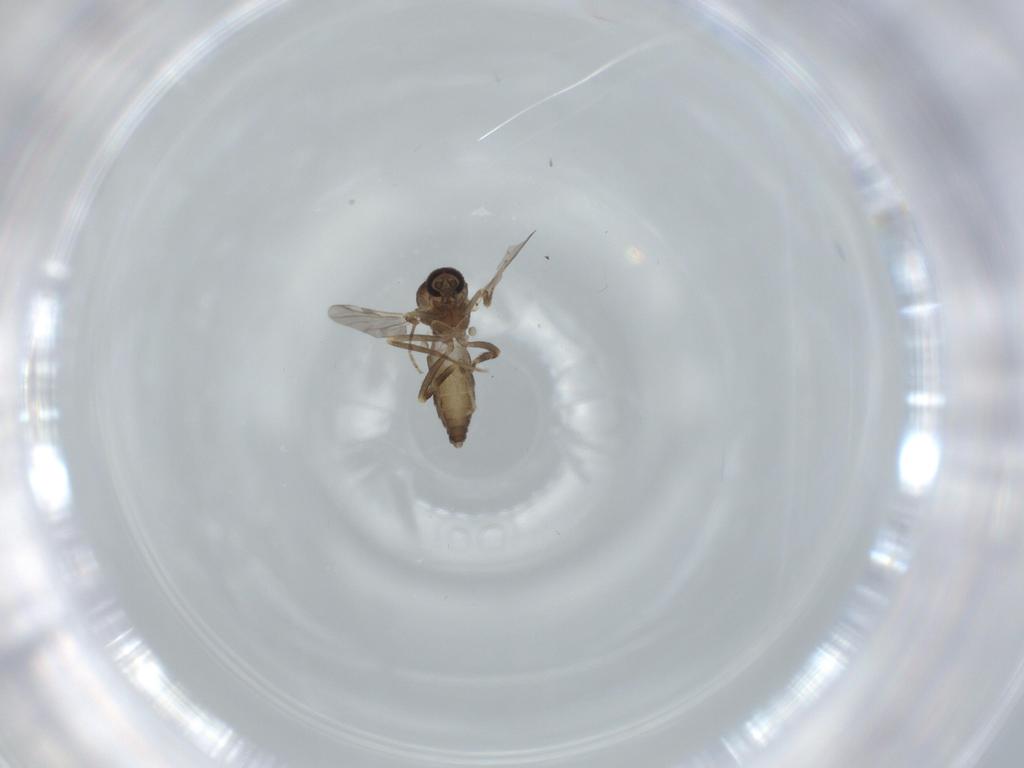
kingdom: Animalia
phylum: Arthropoda
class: Insecta
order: Diptera
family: Ceratopogonidae
